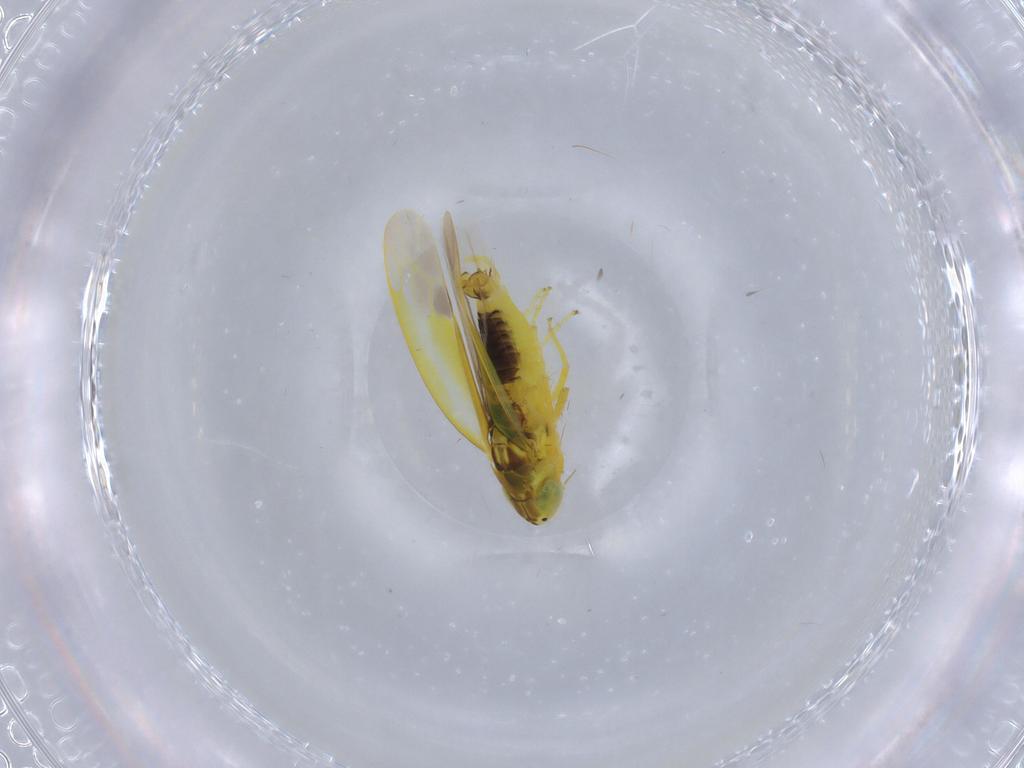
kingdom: Animalia
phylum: Arthropoda
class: Insecta
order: Hemiptera
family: Cicadellidae
